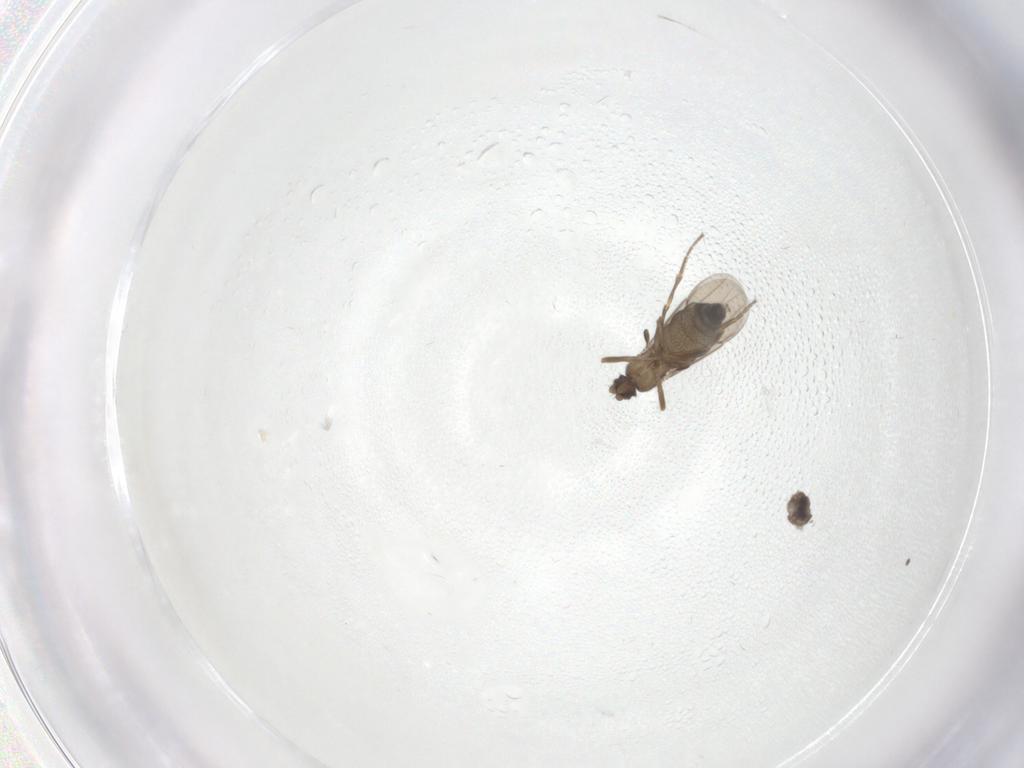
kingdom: Animalia
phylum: Arthropoda
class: Insecta
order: Diptera
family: Phoridae
